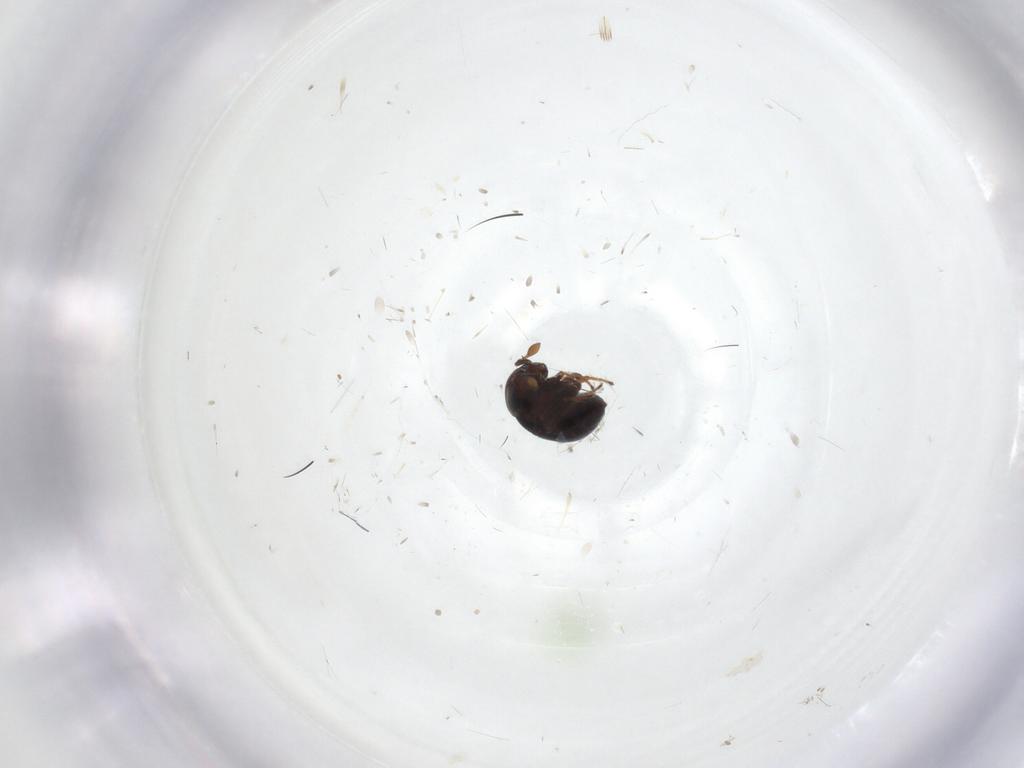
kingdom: Animalia
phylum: Arthropoda
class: Insecta
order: Hymenoptera
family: Scelionidae
